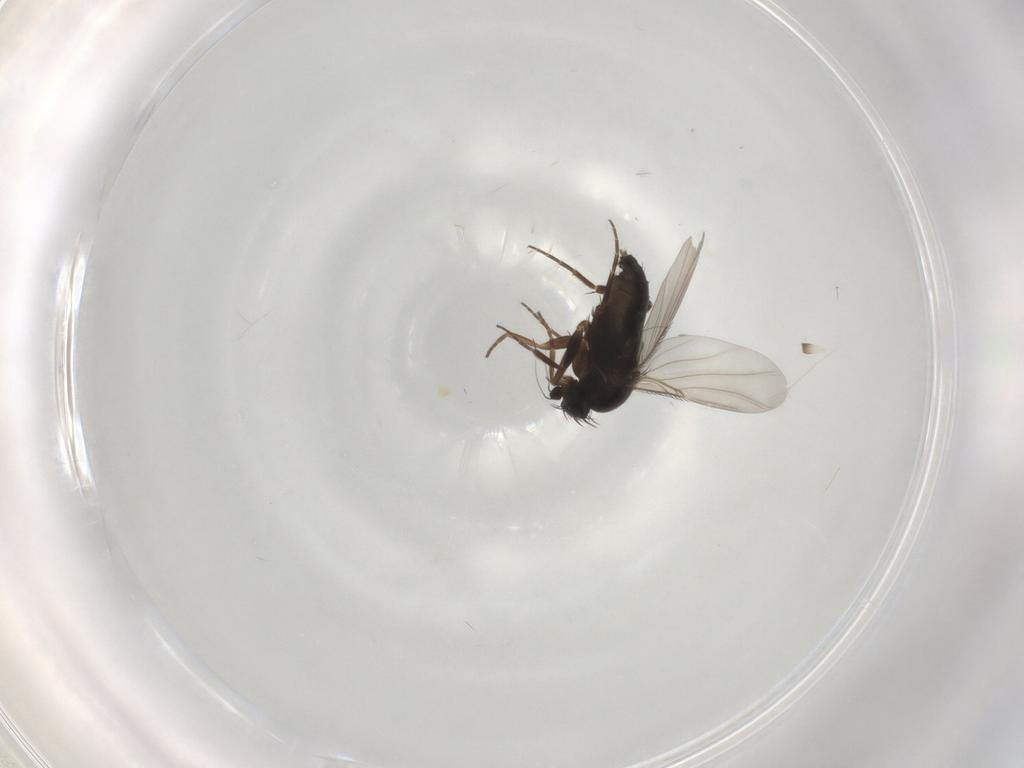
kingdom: Animalia
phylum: Arthropoda
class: Insecta
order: Diptera
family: Phoridae
